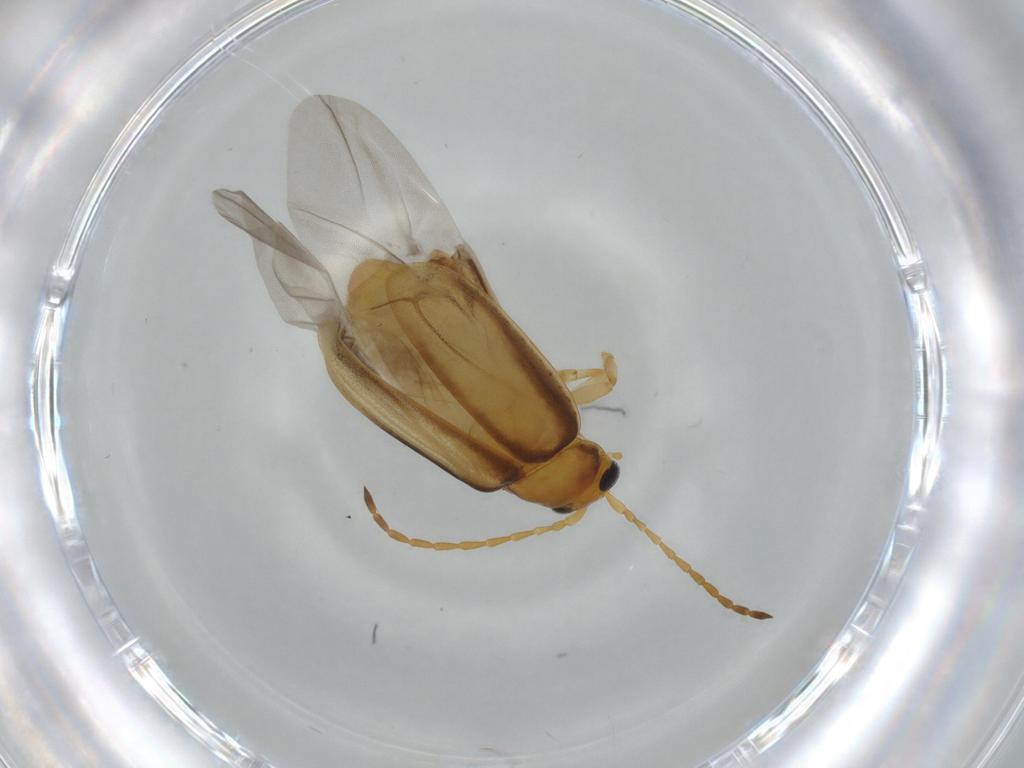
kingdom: Animalia
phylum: Arthropoda
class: Insecta
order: Coleoptera
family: Chrysomelidae
